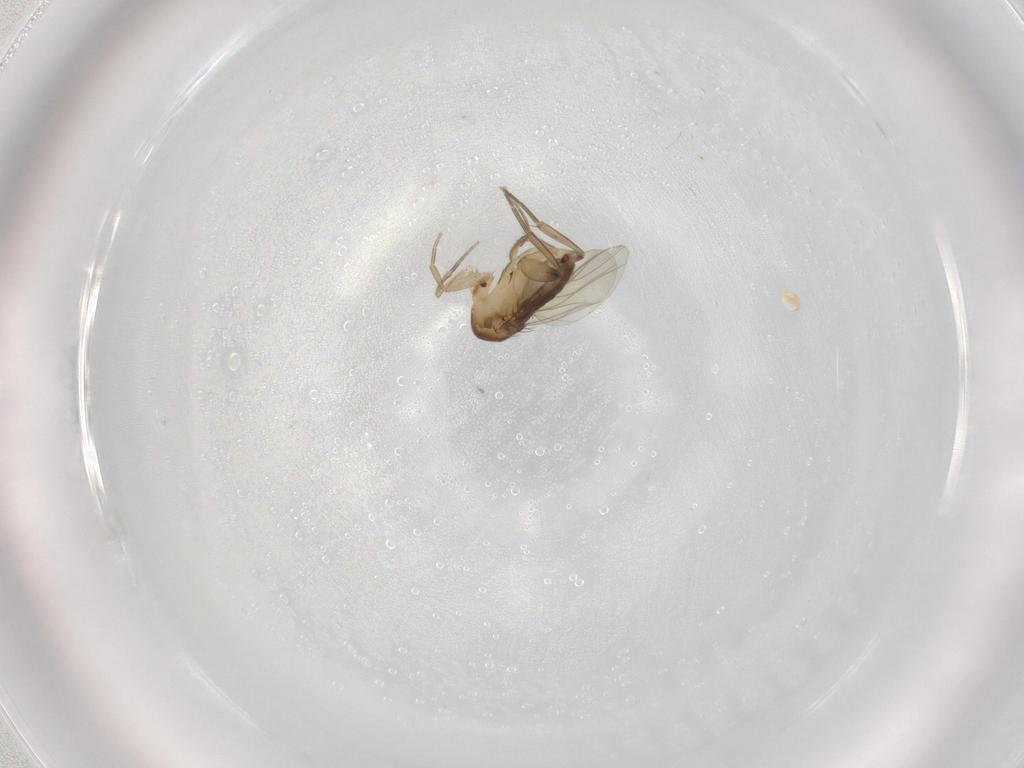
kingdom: Animalia
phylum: Arthropoda
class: Insecta
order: Diptera
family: Phoridae
